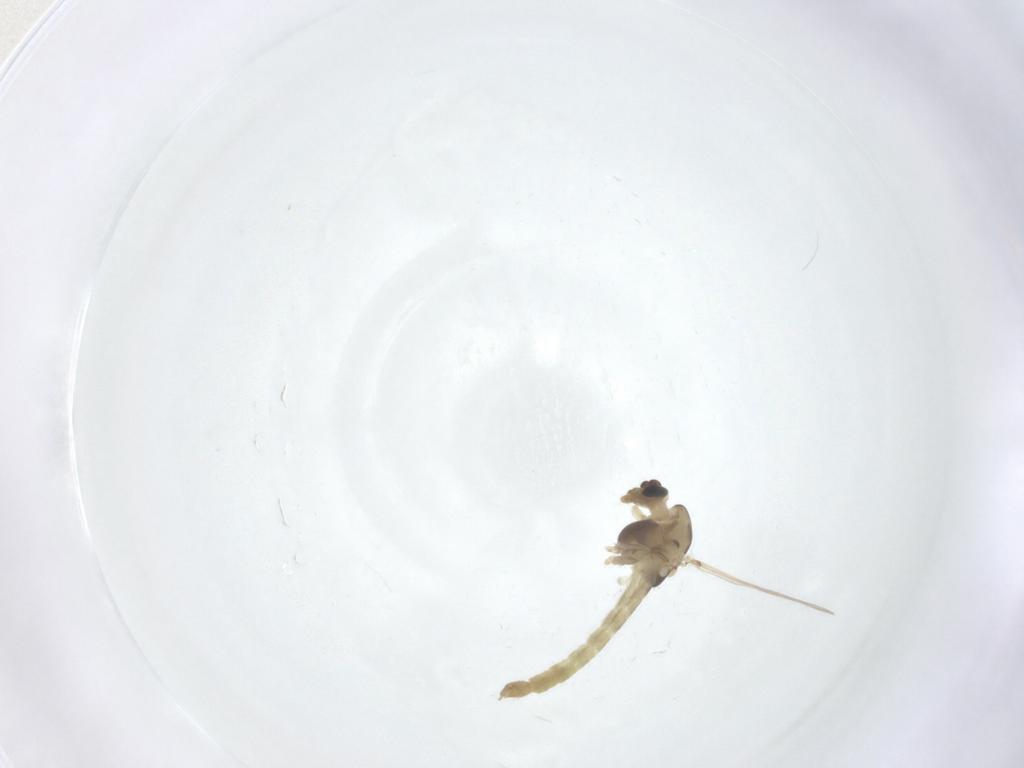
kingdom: Animalia
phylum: Arthropoda
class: Insecta
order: Diptera
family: Chironomidae
